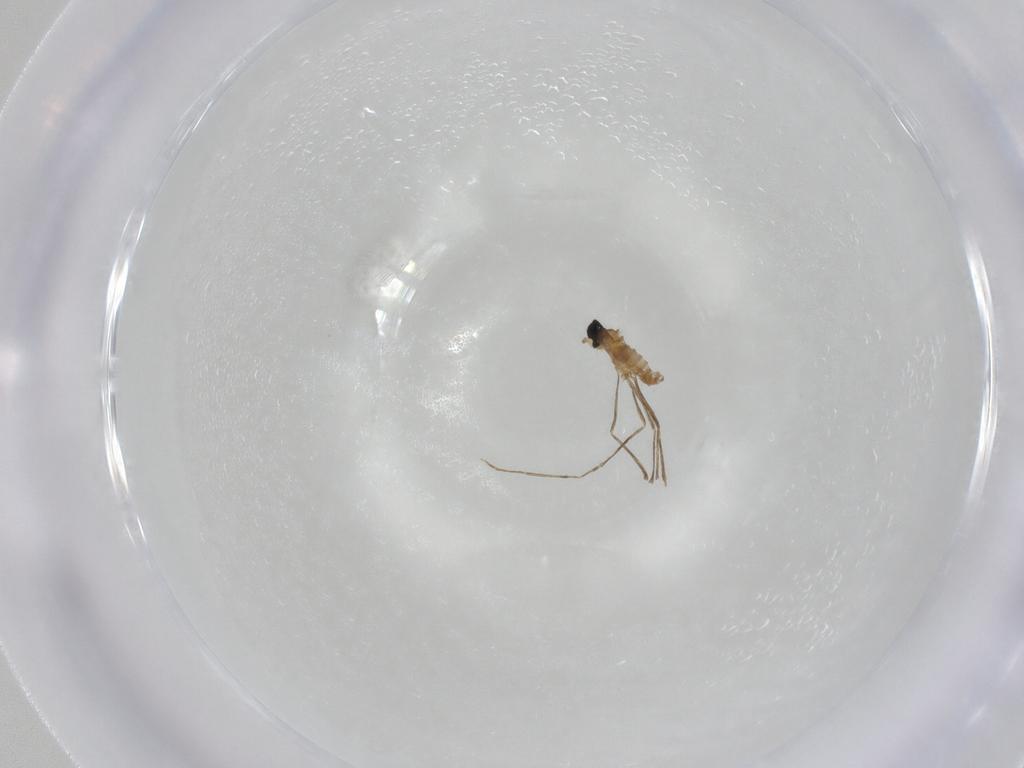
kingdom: Animalia
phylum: Arthropoda
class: Insecta
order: Diptera
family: Cecidomyiidae
